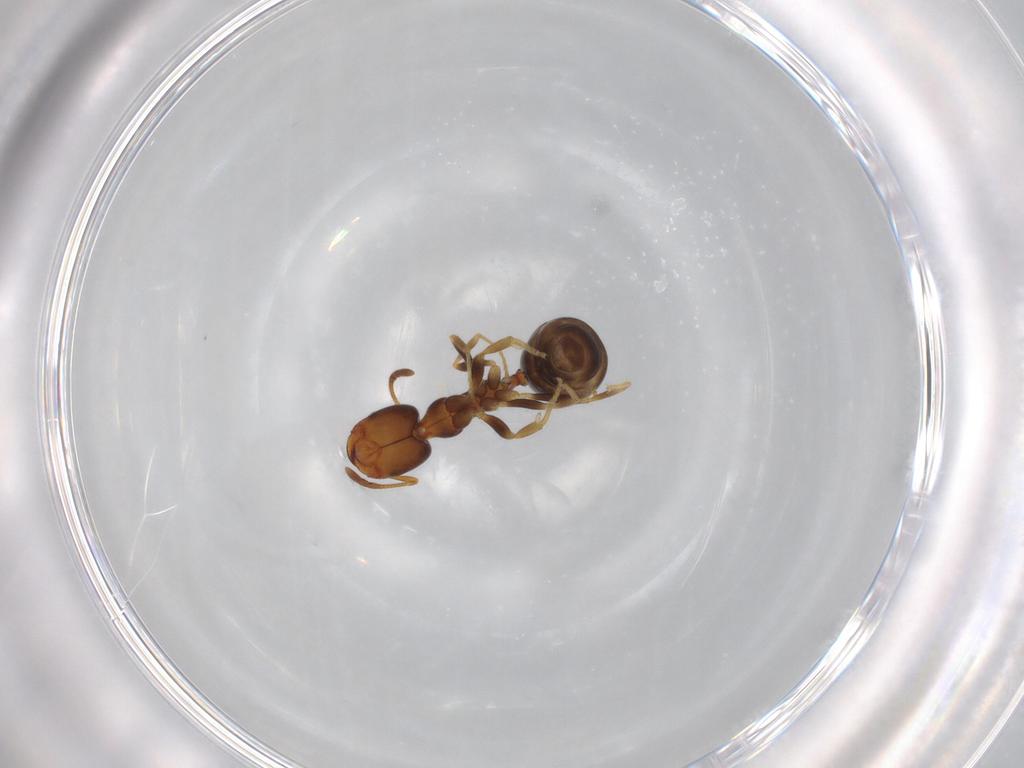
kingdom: Animalia
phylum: Arthropoda
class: Insecta
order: Hymenoptera
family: Formicidae
